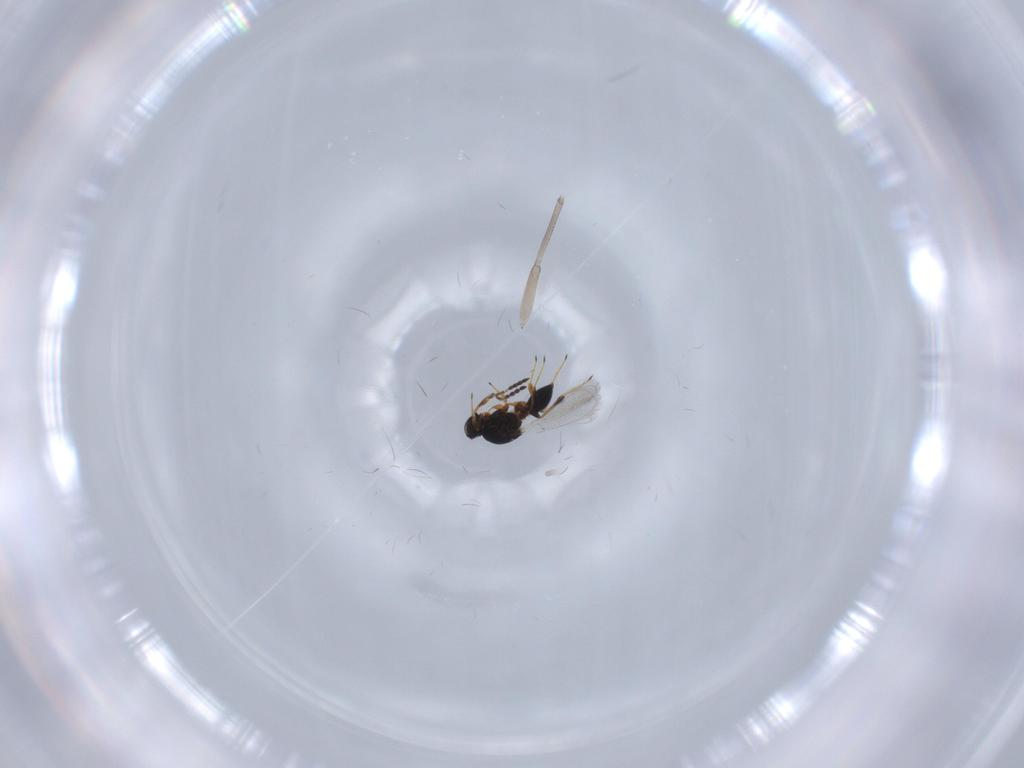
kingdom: Animalia
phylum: Arthropoda
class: Insecta
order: Hymenoptera
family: Platygastridae
